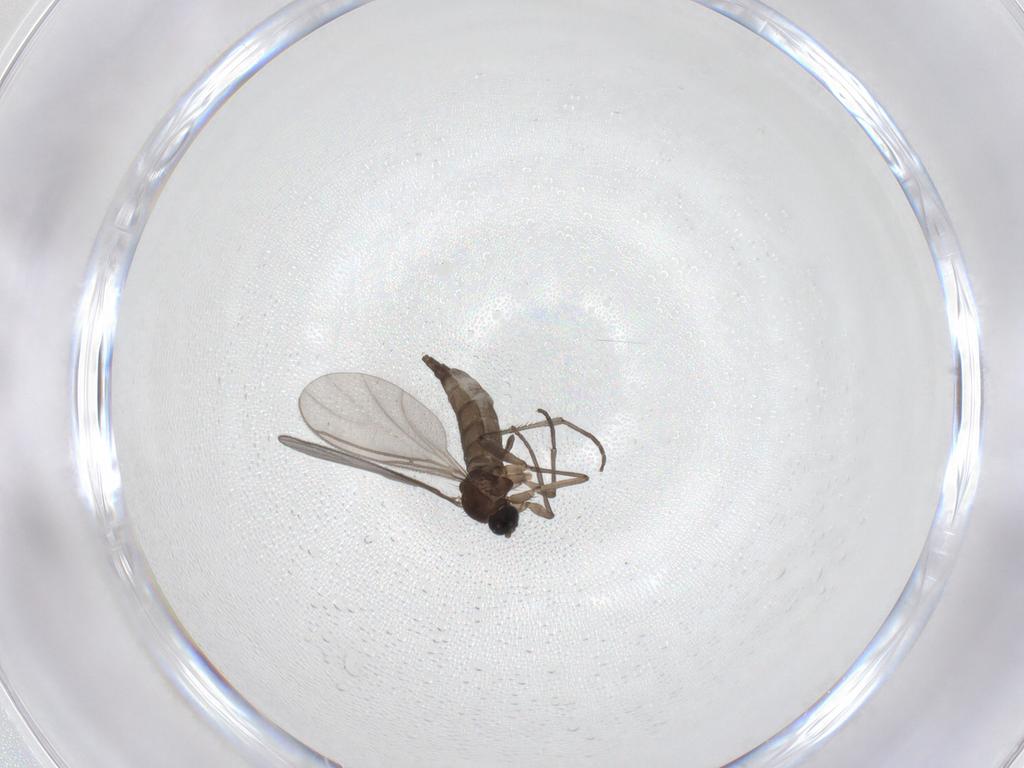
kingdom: Animalia
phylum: Arthropoda
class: Insecta
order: Diptera
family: Sciaridae
